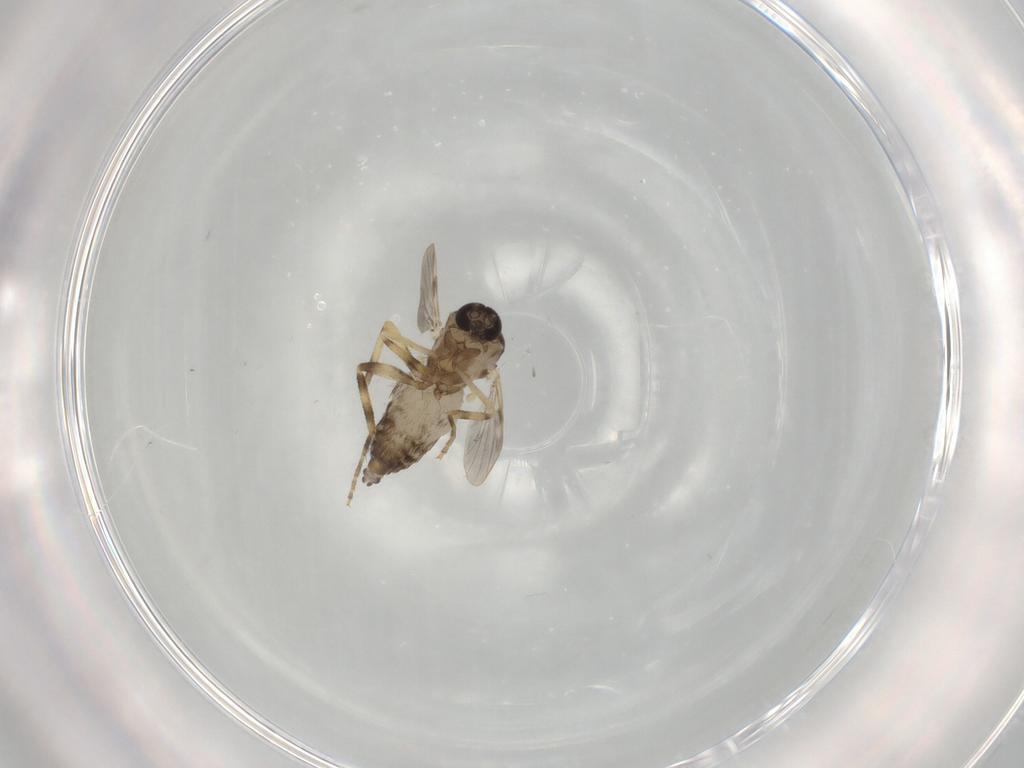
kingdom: Animalia
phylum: Arthropoda
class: Insecta
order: Diptera
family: Ceratopogonidae
